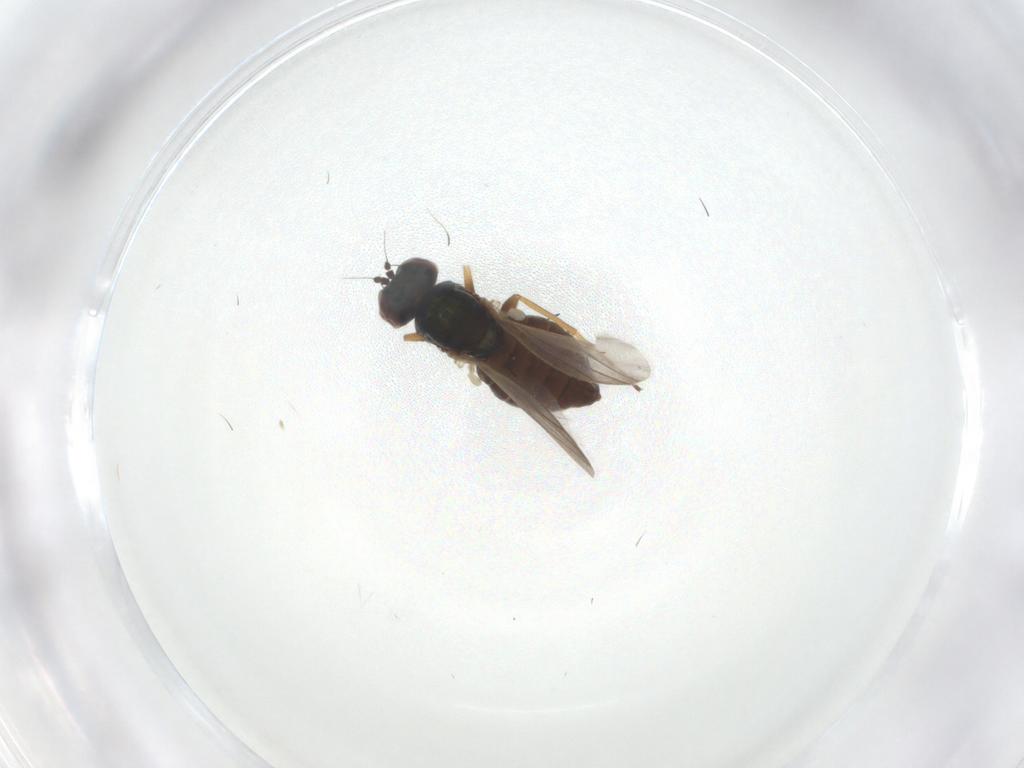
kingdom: Animalia
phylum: Arthropoda
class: Insecta
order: Diptera
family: Dolichopodidae
